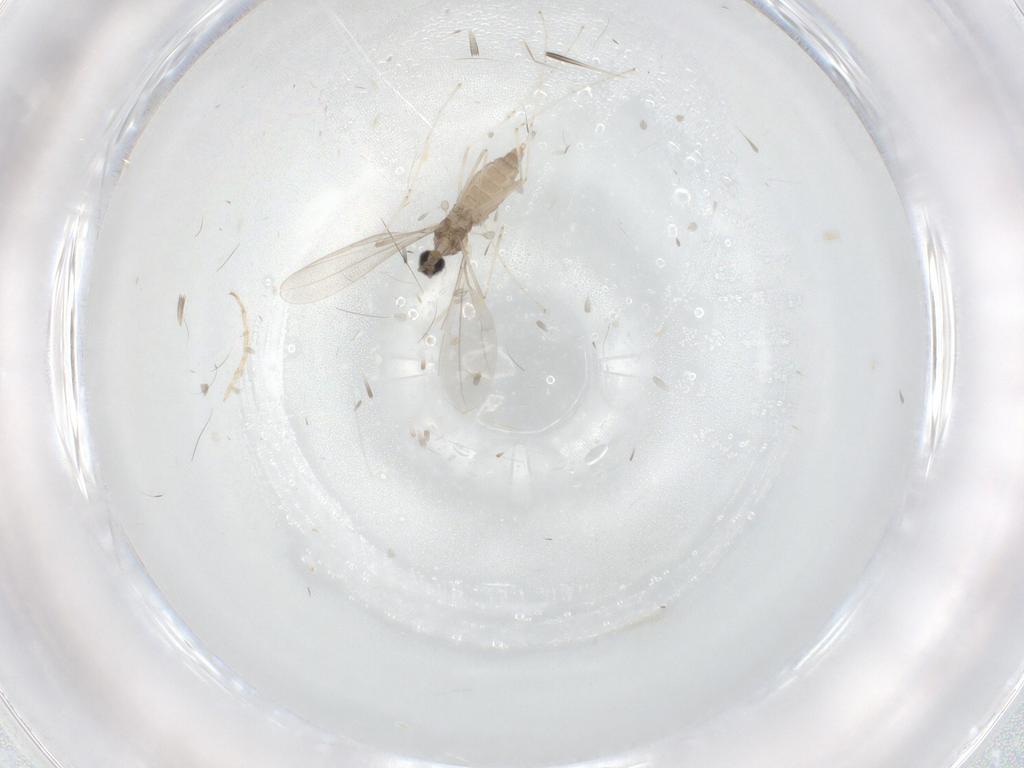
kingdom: Animalia
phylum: Arthropoda
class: Insecta
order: Diptera
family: Cecidomyiidae
